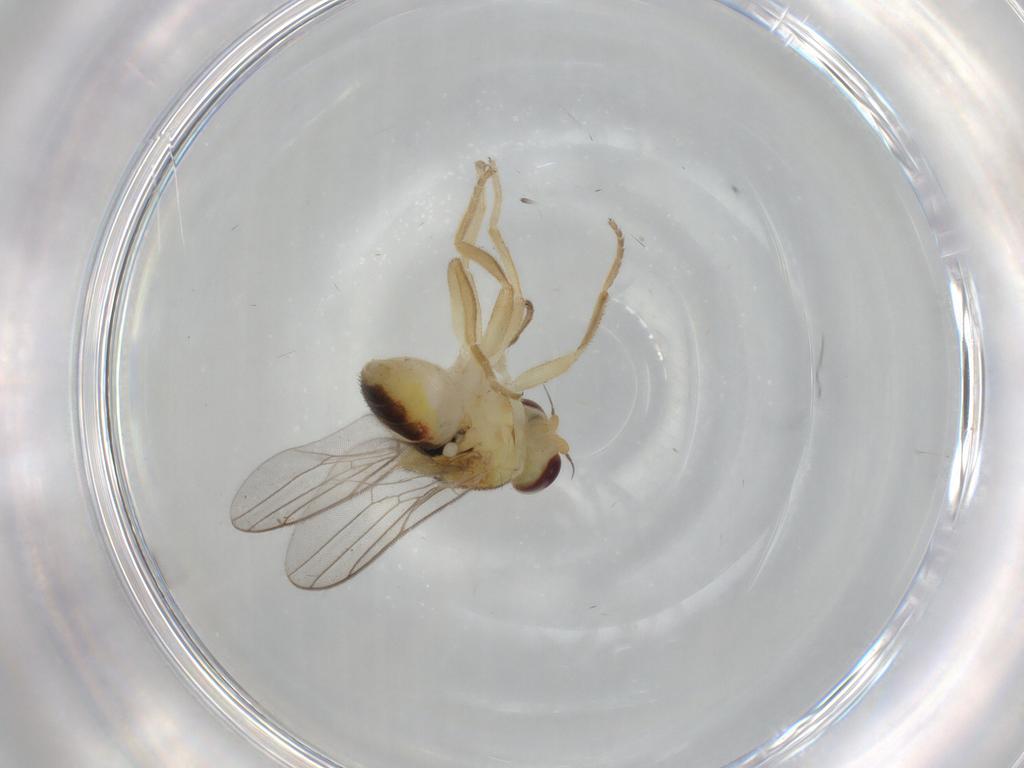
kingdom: Animalia
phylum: Arthropoda
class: Insecta
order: Diptera
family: Chloropidae
